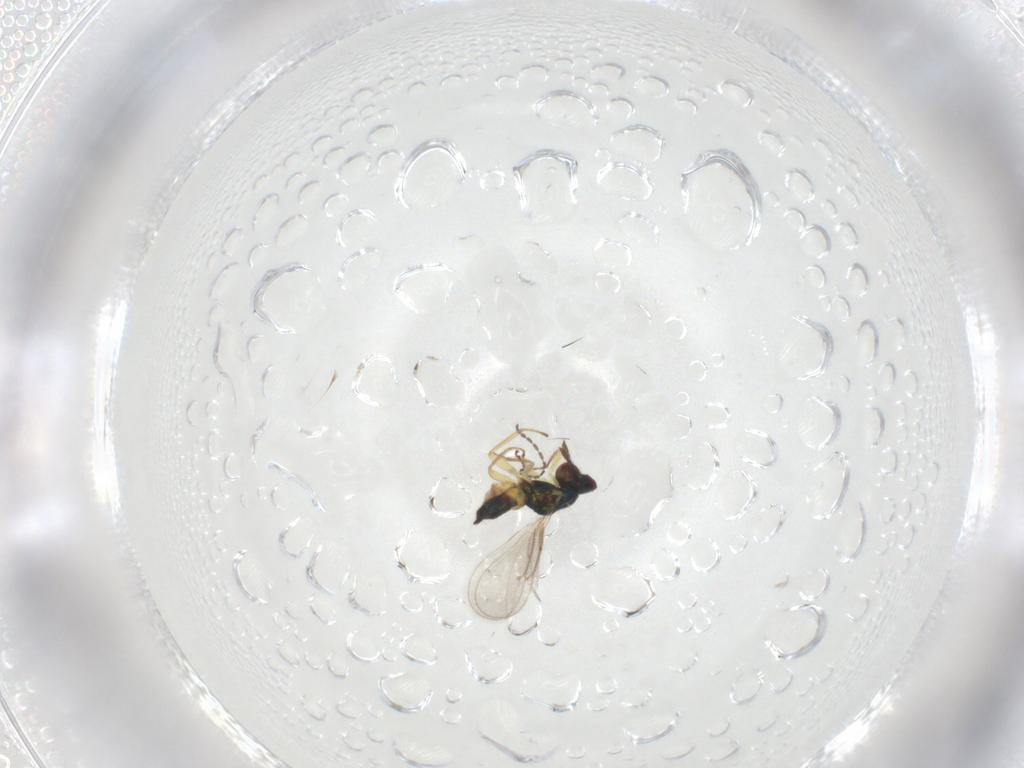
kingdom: Animalia
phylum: Arthropoda
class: Insecta
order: Hymenoptera
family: Eulophidae
